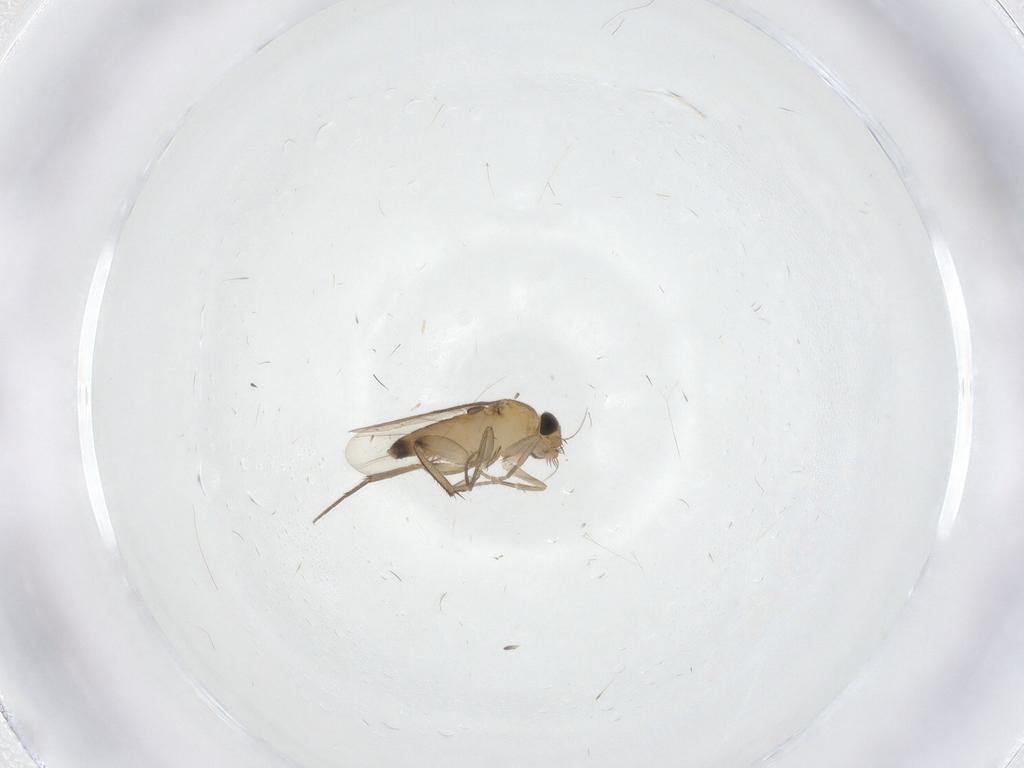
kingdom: Animalia
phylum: Arthropoda
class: Insecta
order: Diptera
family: Phoridae
